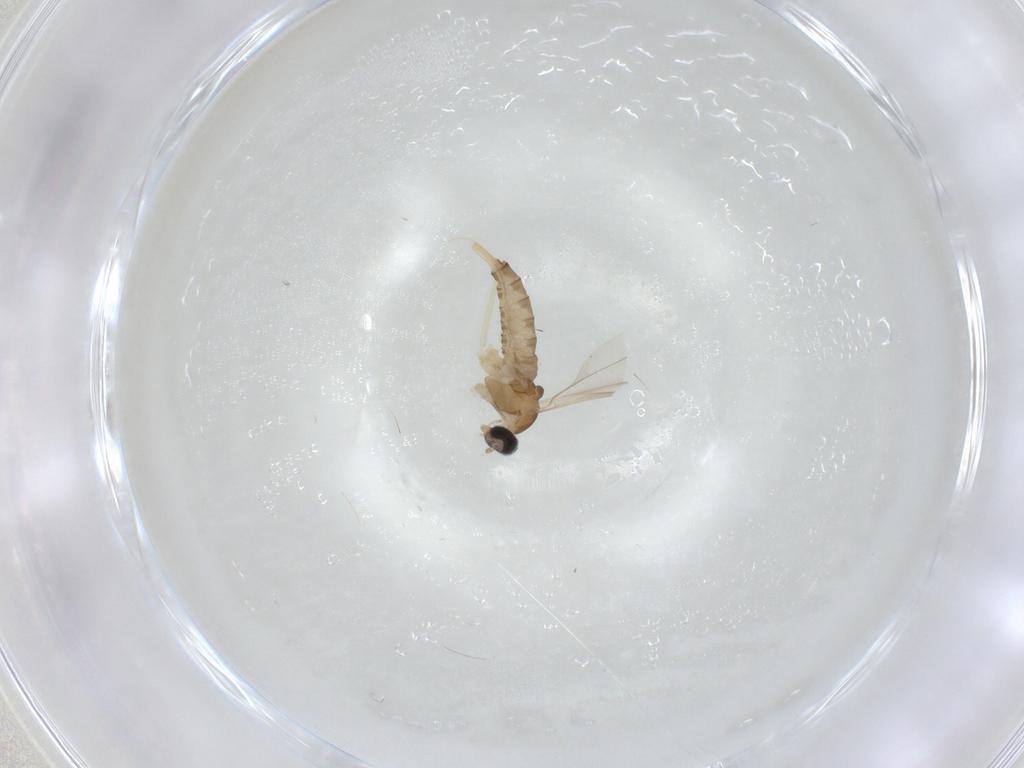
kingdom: Animalia
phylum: Arthropoda
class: Insecta
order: Diptera
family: Cecidomyiidae
